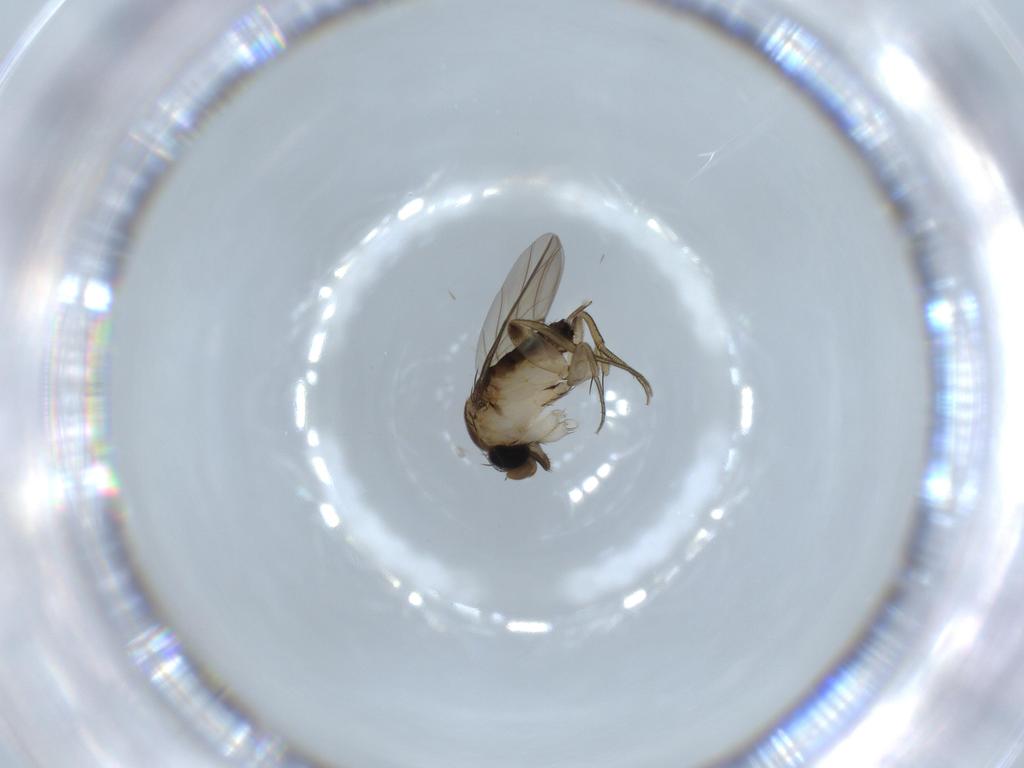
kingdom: Animalia
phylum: Arthropoda
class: Insecta
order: Diptera
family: Phoridae
